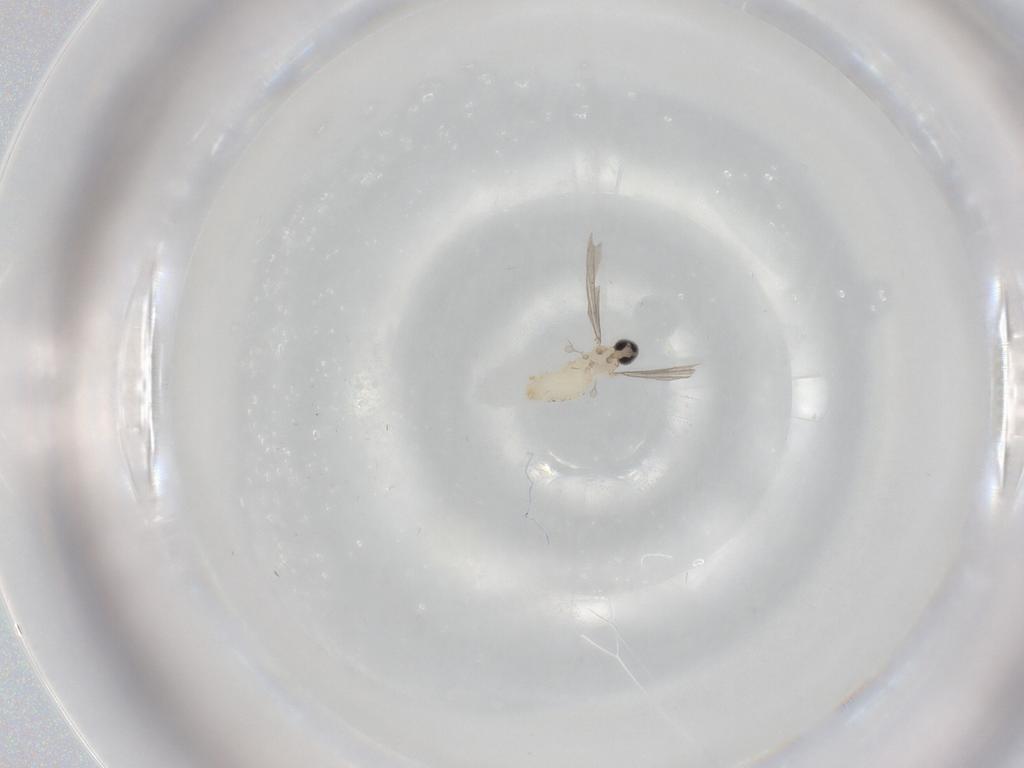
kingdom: Animalia
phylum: Arthropoda
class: Insecta
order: Diptera
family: Cecidomyiidae
